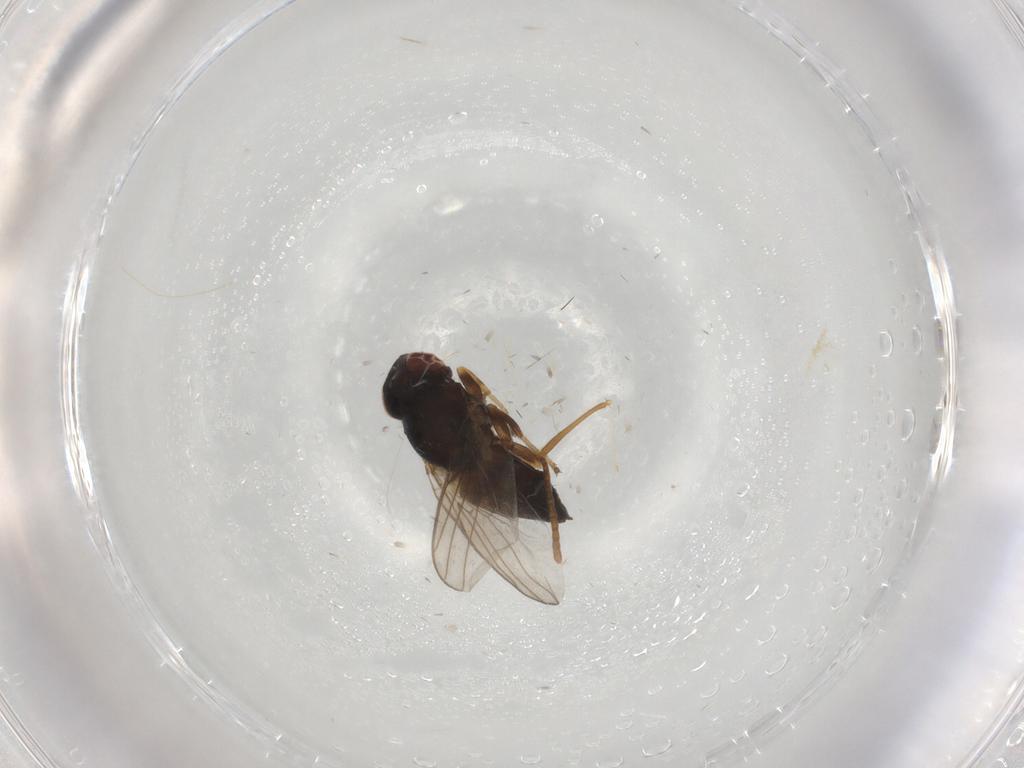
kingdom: Animalia
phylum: Arthropoda
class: Insecta
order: Diptera
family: Chloropidae
